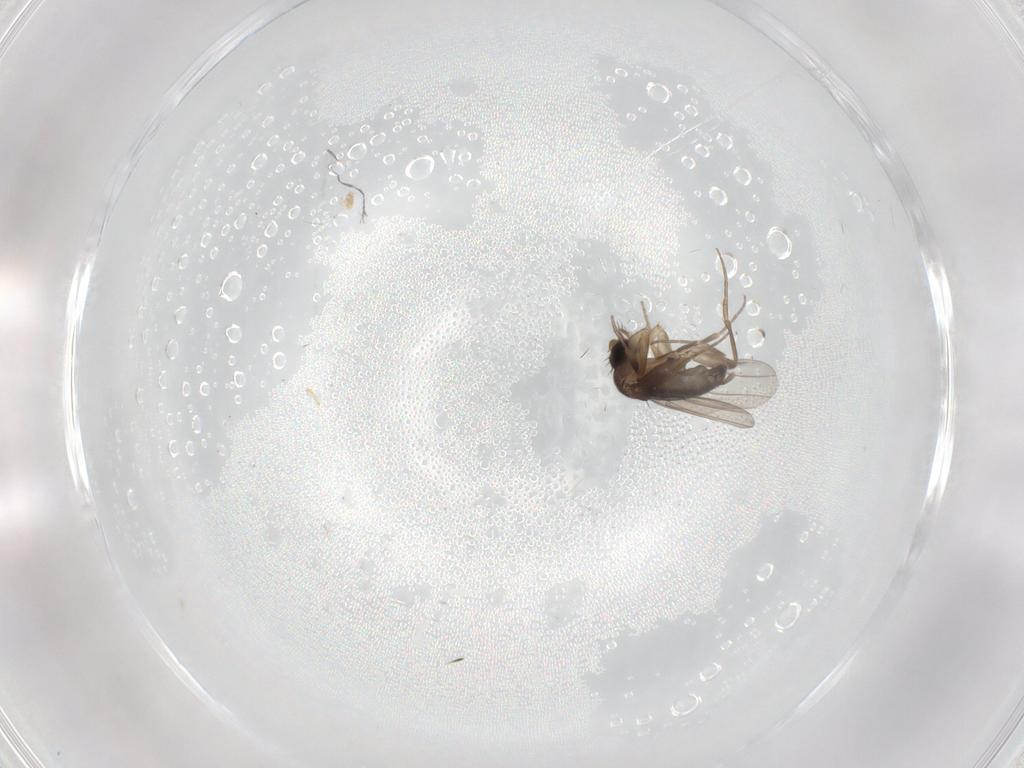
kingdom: Animalia
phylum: Arthropoda
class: Insecta
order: Diptera
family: Phoridae
